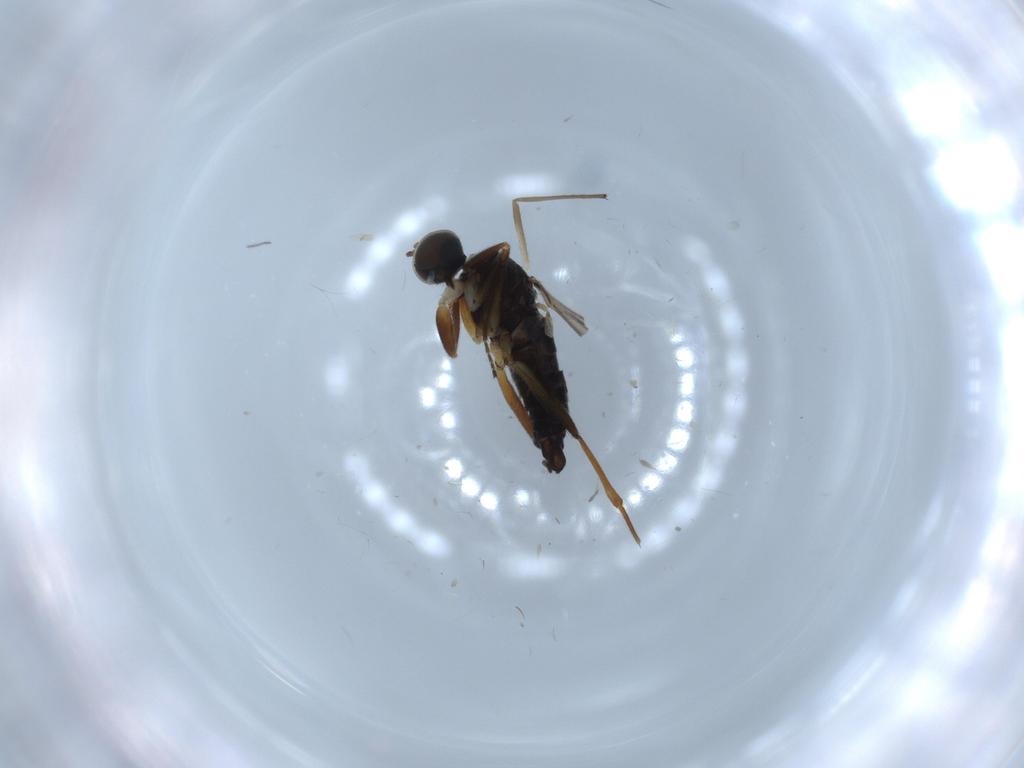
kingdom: Animalia
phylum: Arthropoda
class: Insecta
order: Diptera
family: Hybotidae
